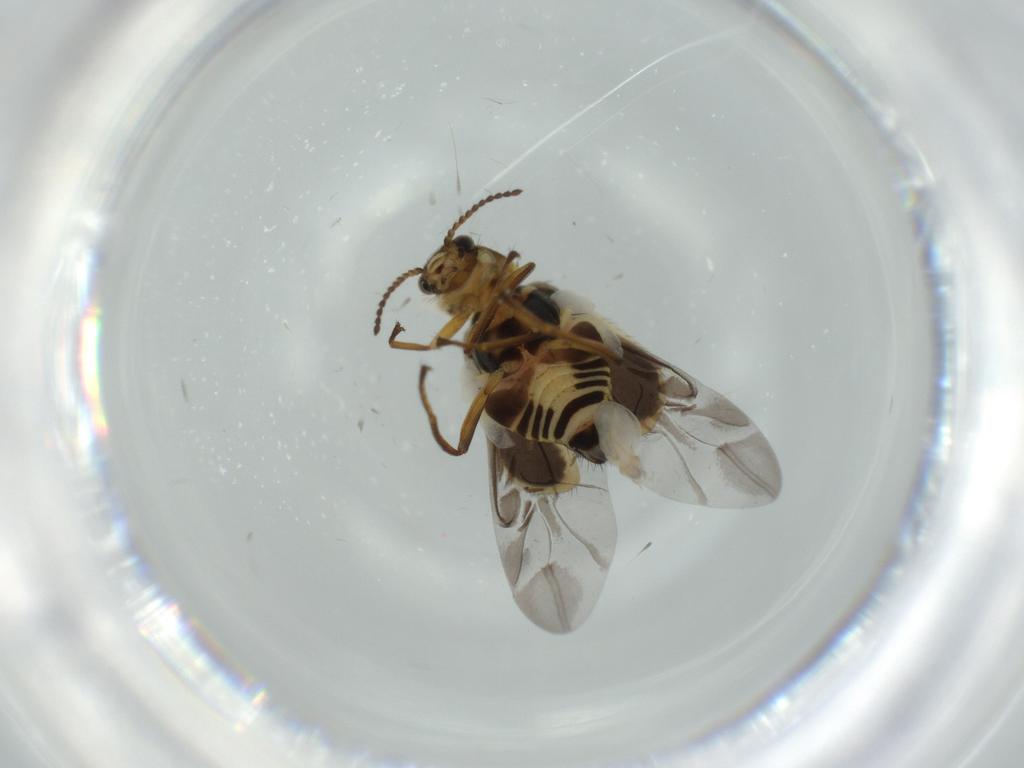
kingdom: Animalia
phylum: Arthropoda
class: Insecta
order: Coleoptera
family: Melyridae
